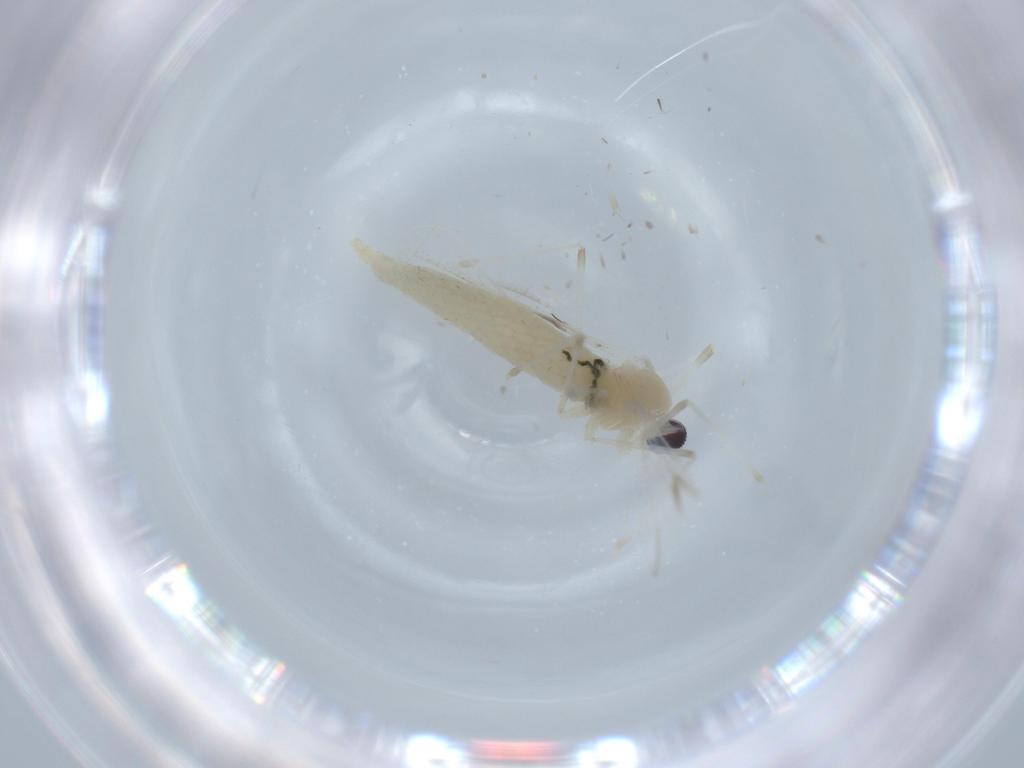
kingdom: Animalia
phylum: Arthropoda
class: Insecta
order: Diptera
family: Cecidomyiidae
